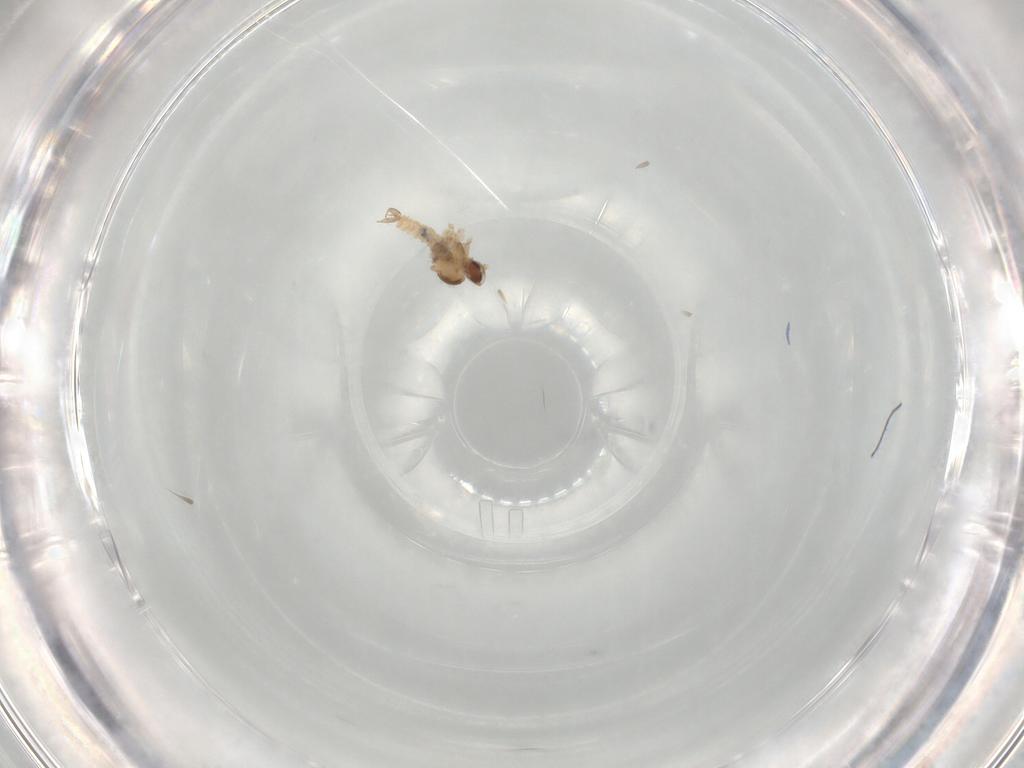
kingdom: Animalia
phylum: Arthropoda
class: Insecta
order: Diptera
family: Cecidomyiidae
